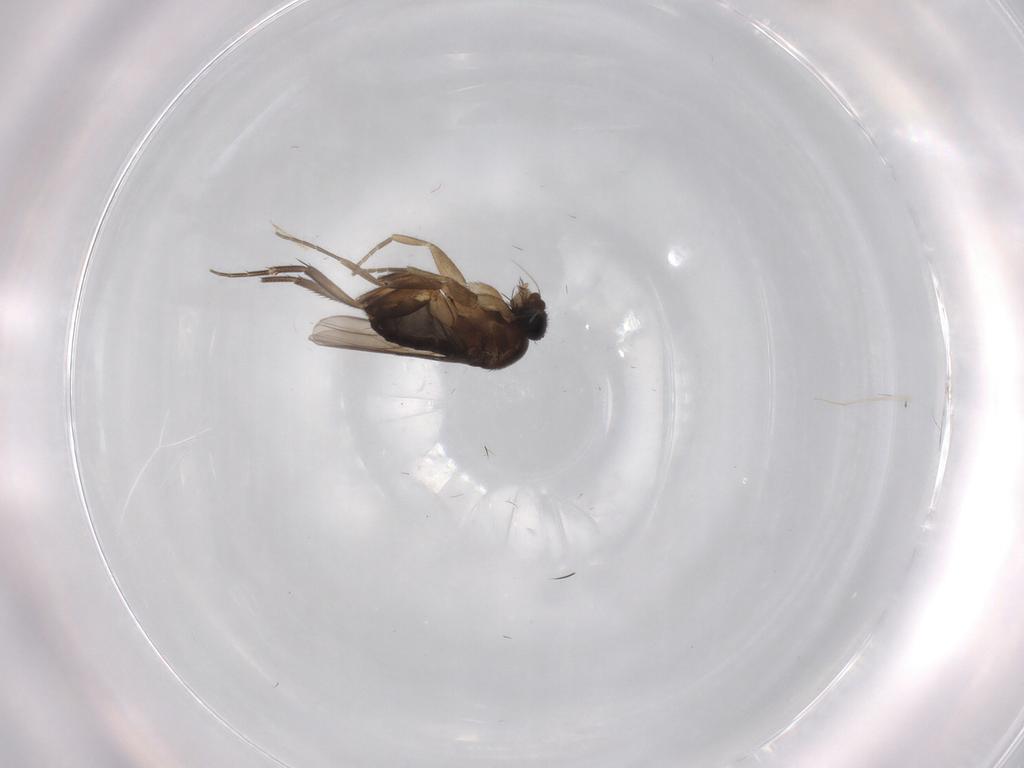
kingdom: Animalia
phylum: Arthropoda
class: Insecta
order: Diptera
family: Phoridae
